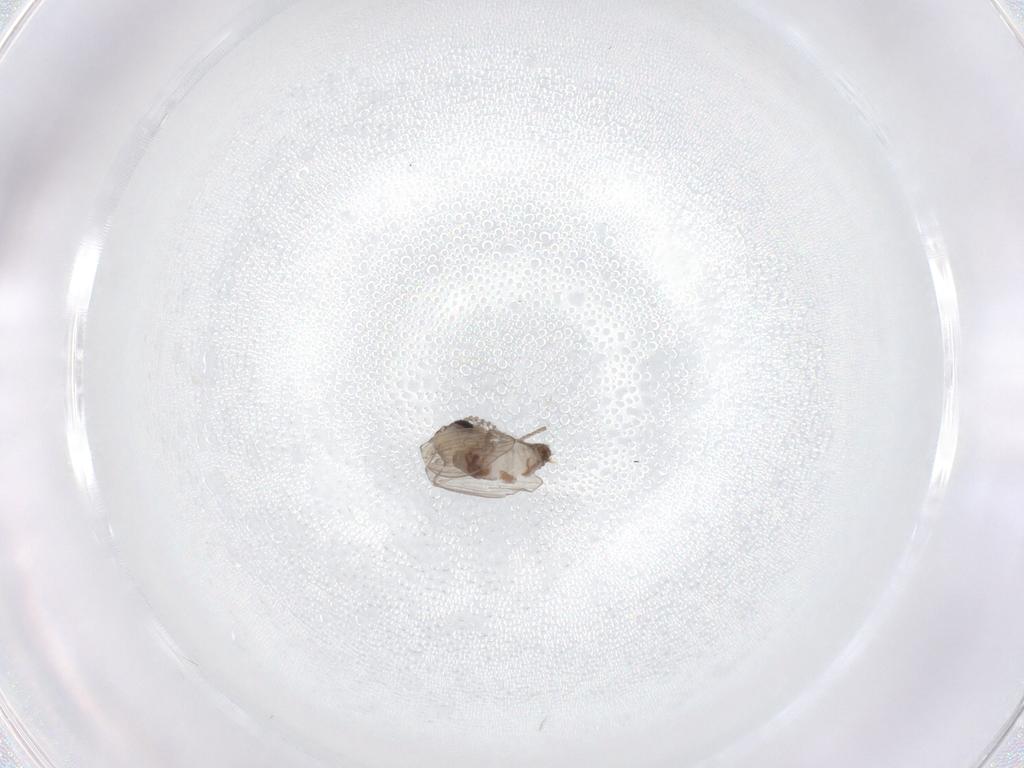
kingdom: Animalia
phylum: Arthropoda
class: Insecta
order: Diptera
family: Psychodidae
